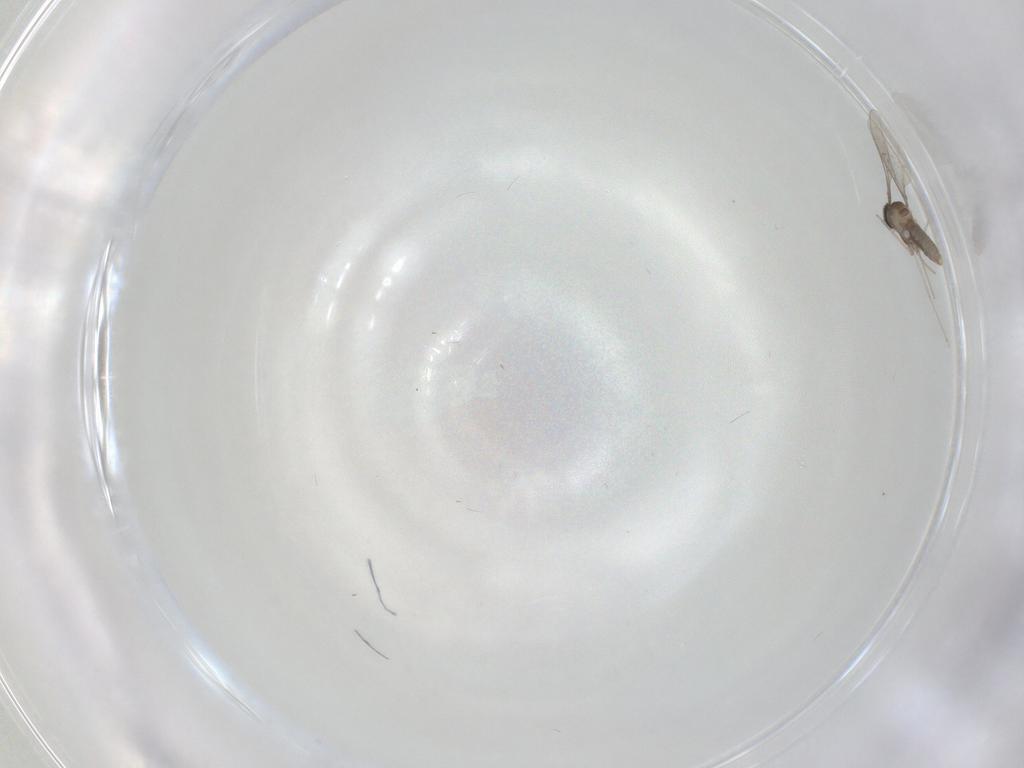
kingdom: Animalia
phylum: Arthropoda
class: Insecta
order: Diptera
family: Cecidomyiidae
